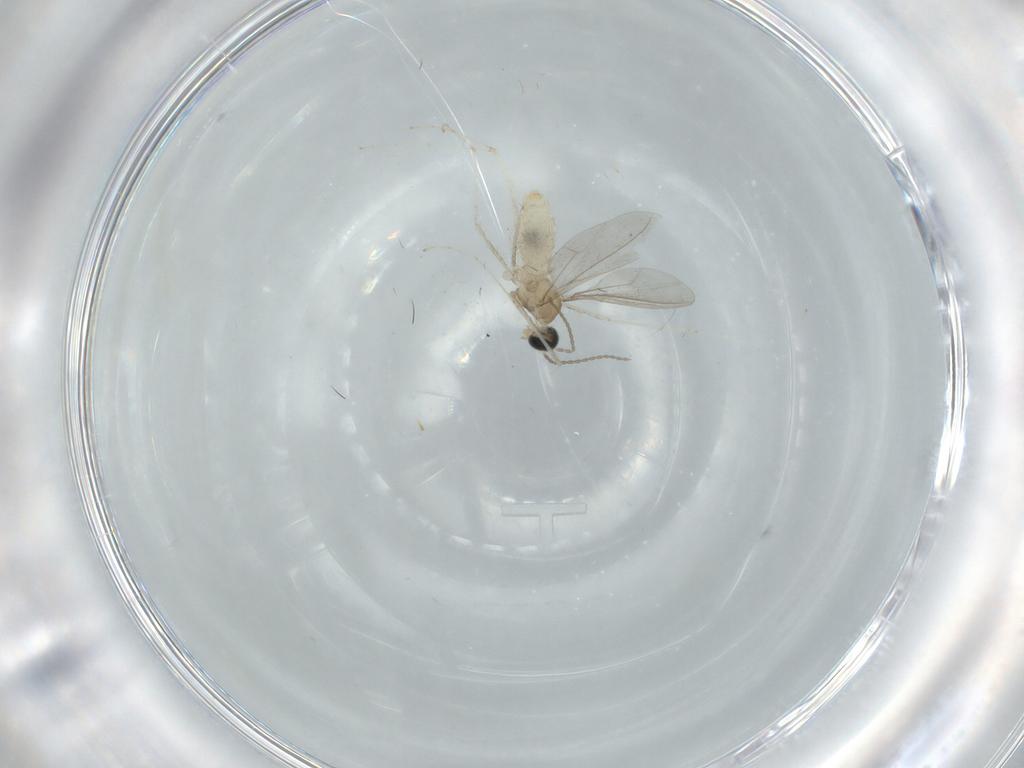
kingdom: Animalia
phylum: Arthropoda
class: Insecta
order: Diptera
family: Cecidomyiidae
